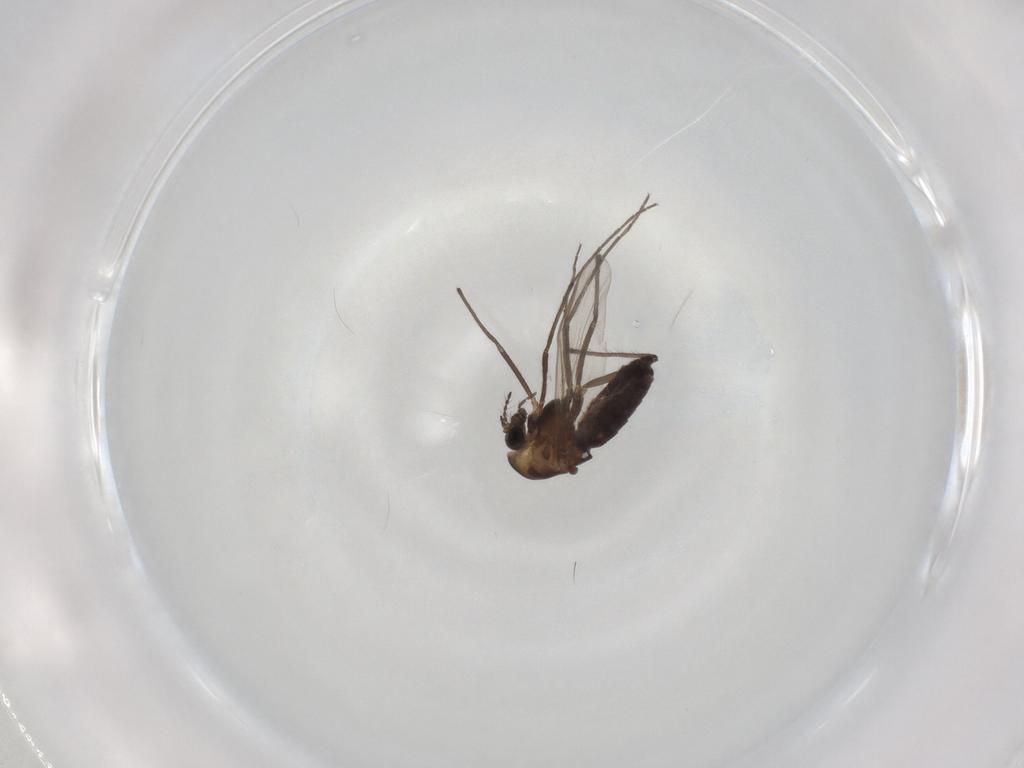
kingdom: Animalia
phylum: Arthropoda
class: Insecta
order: Diptera
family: Chironomidae
